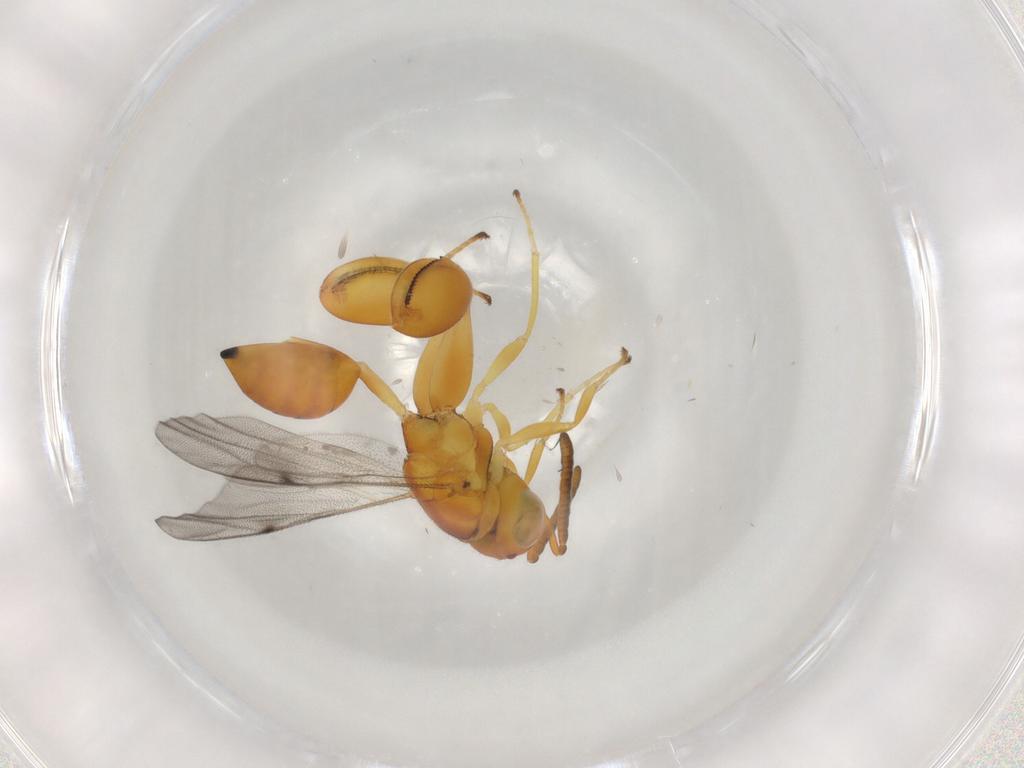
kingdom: Animalia
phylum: Arthropoda
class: Insecta
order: Hymenoptera
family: Chalcididae
